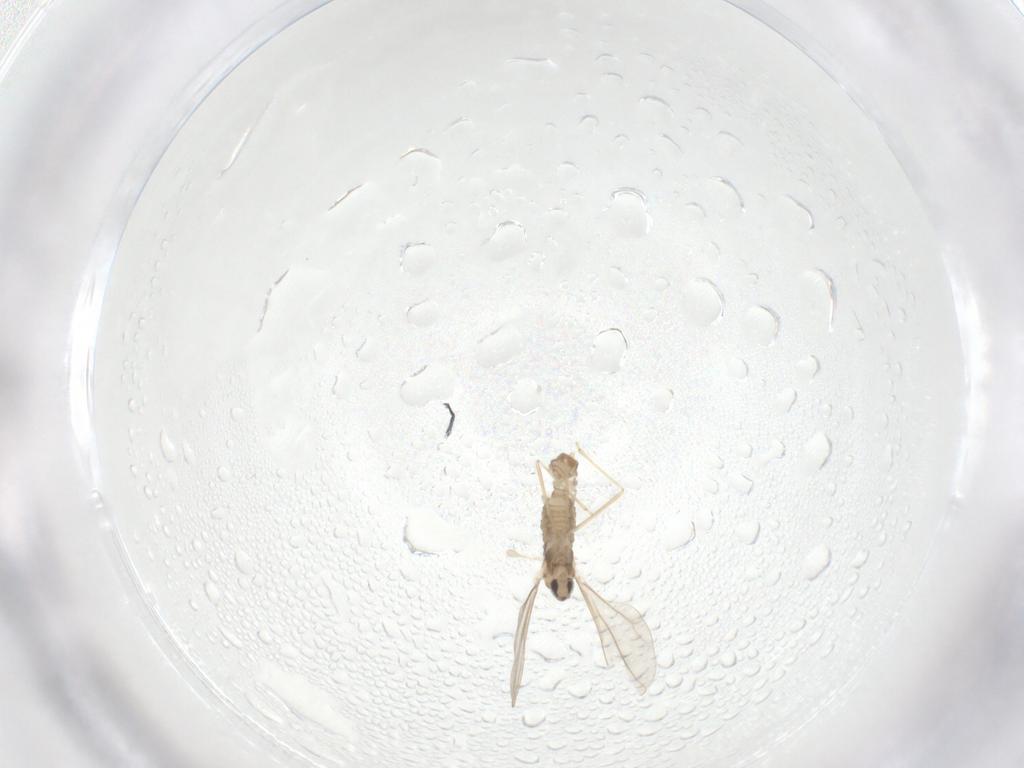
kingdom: Animalia
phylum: Arthropoda
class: Insecta
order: Diptera
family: Cecidomyiidae
